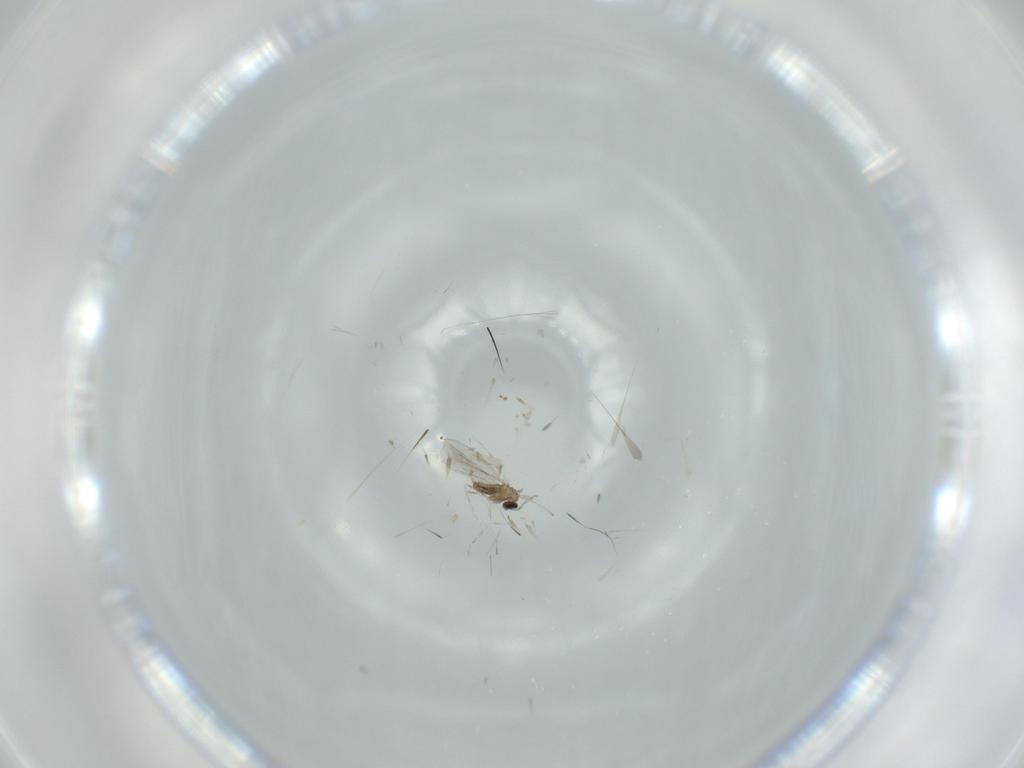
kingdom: Animalia
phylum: Arthropoda
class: Insecta
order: Diptera
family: Cecidomyiidae
